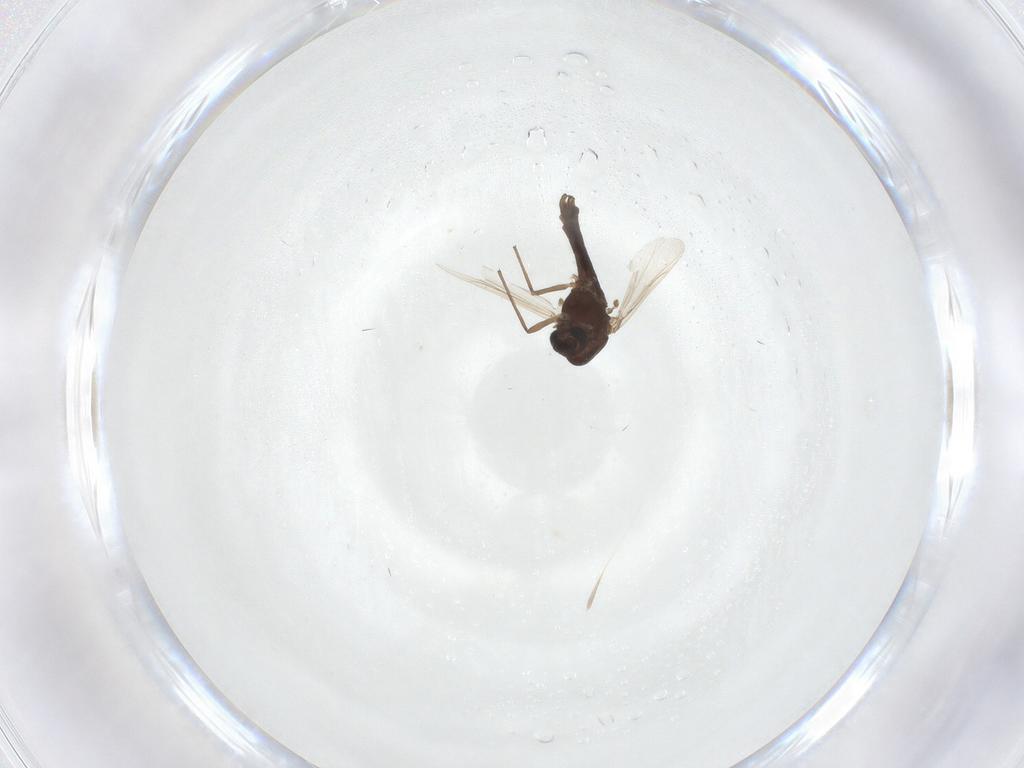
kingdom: Animalia
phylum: Arthropoda
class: Insecta
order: Diptera
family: Chironomidae
